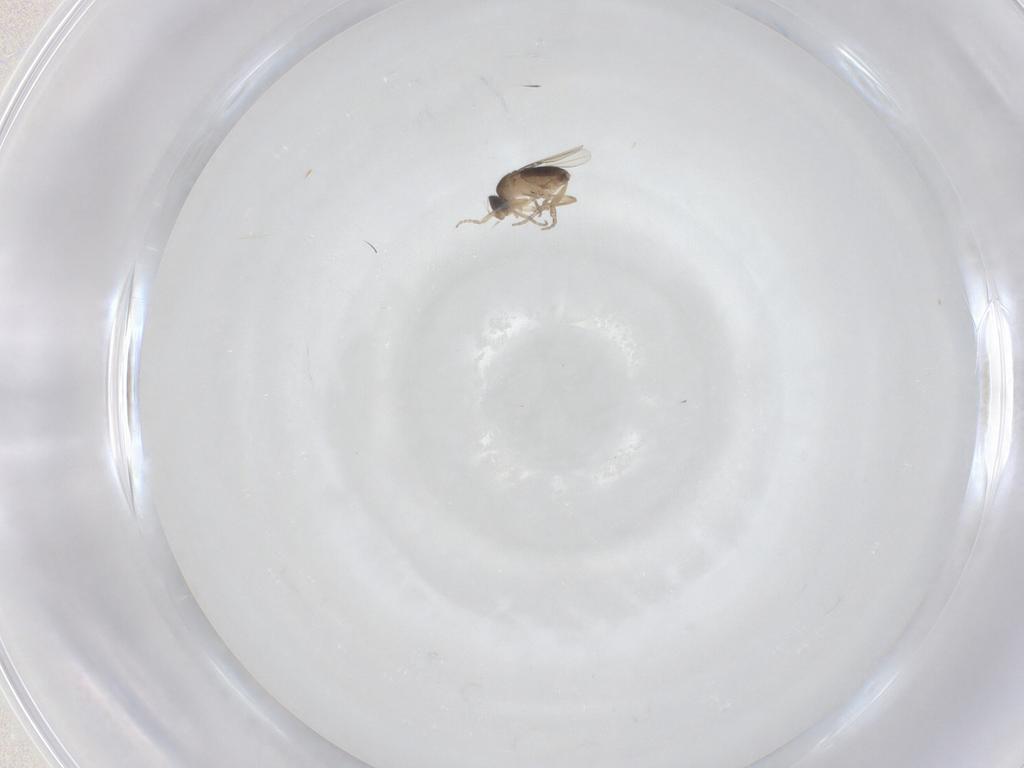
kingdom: Animalia
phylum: Arthropoda
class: Insecta
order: Diptera
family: Phoridae
